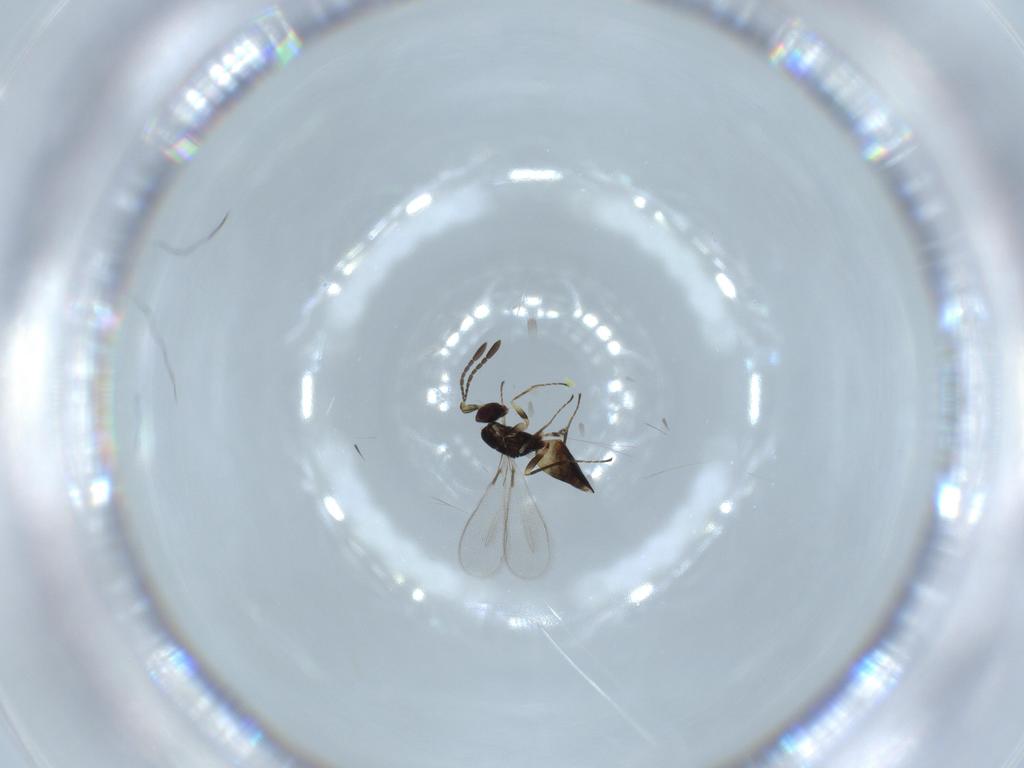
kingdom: Animalia
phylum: Arthropoda
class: Insecta
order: Hymenoptera
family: Mymaridae
